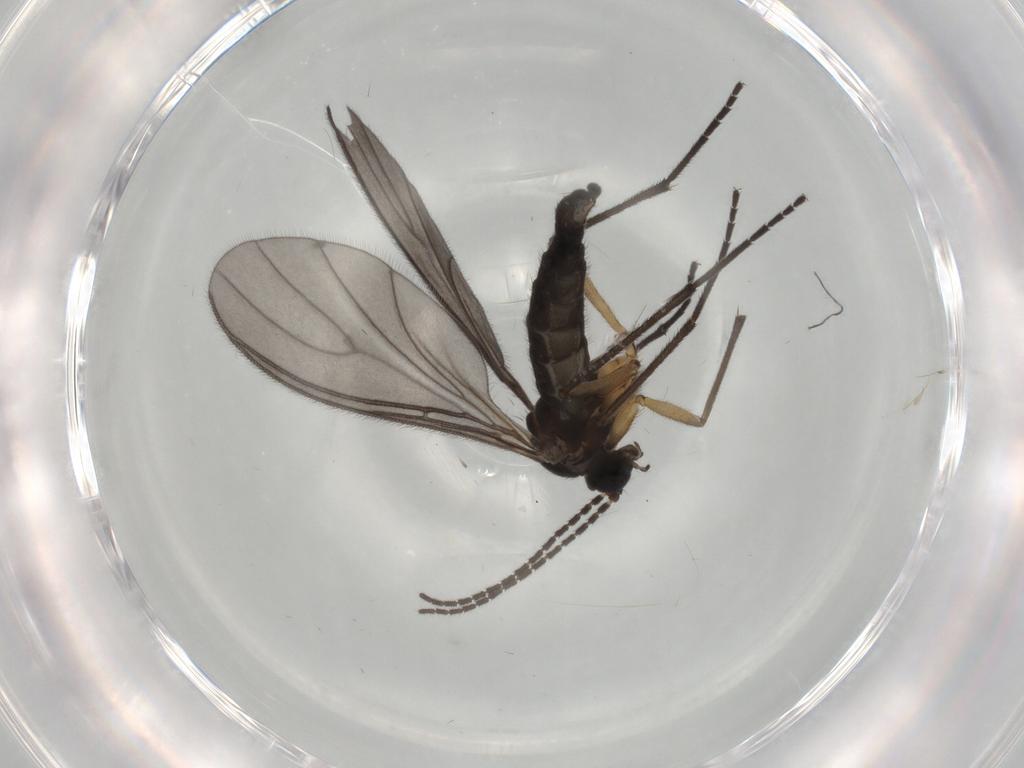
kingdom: Animalia
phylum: Arthropoda
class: Insecta
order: Diptera
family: Sciaridae
